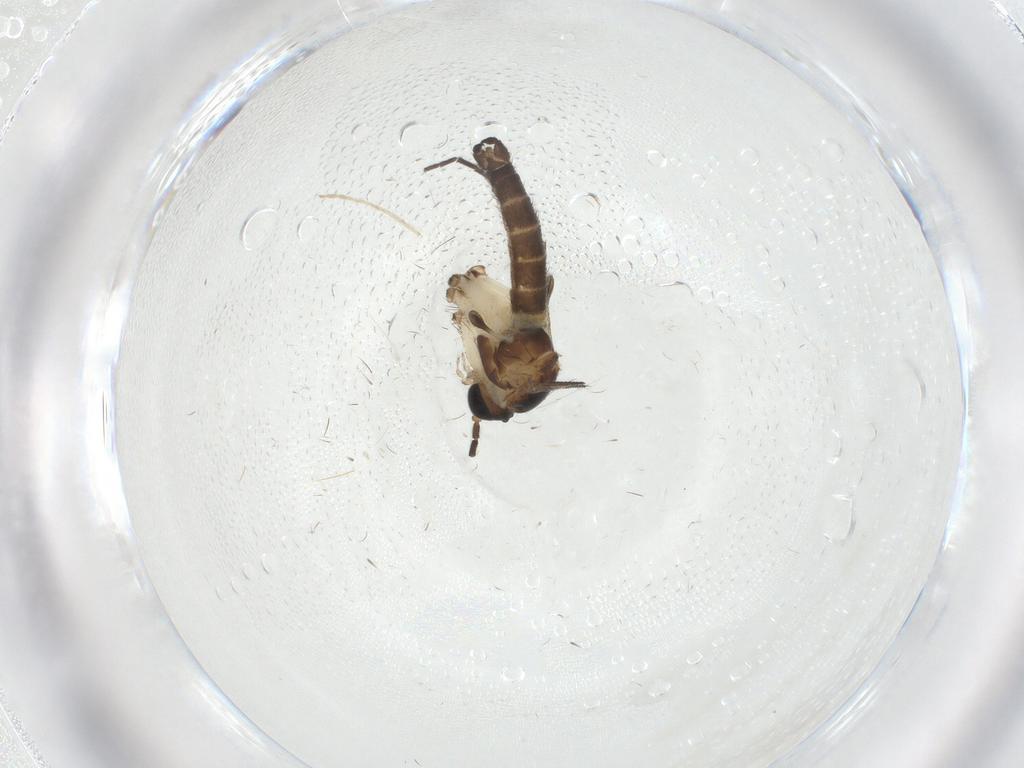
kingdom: Animalia
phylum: Arthropoda
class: Insecta
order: Diptera
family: Sciaridae
